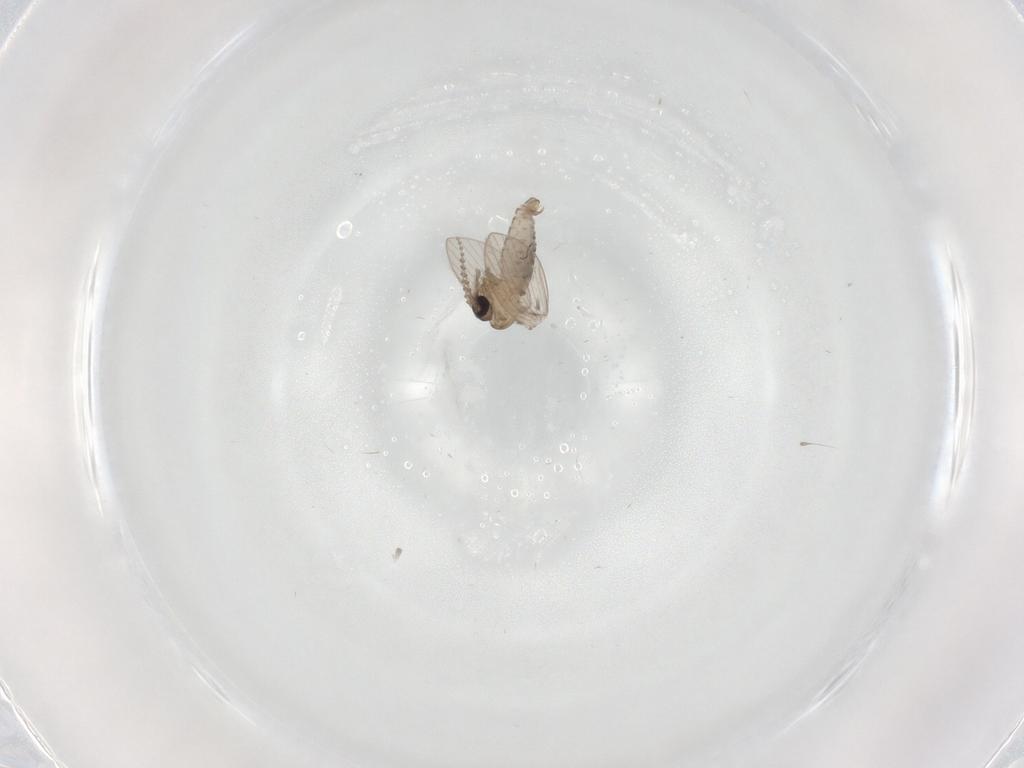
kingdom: Animalia
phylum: Arthropoda
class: Insecta
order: Diptera
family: Psychodidae
